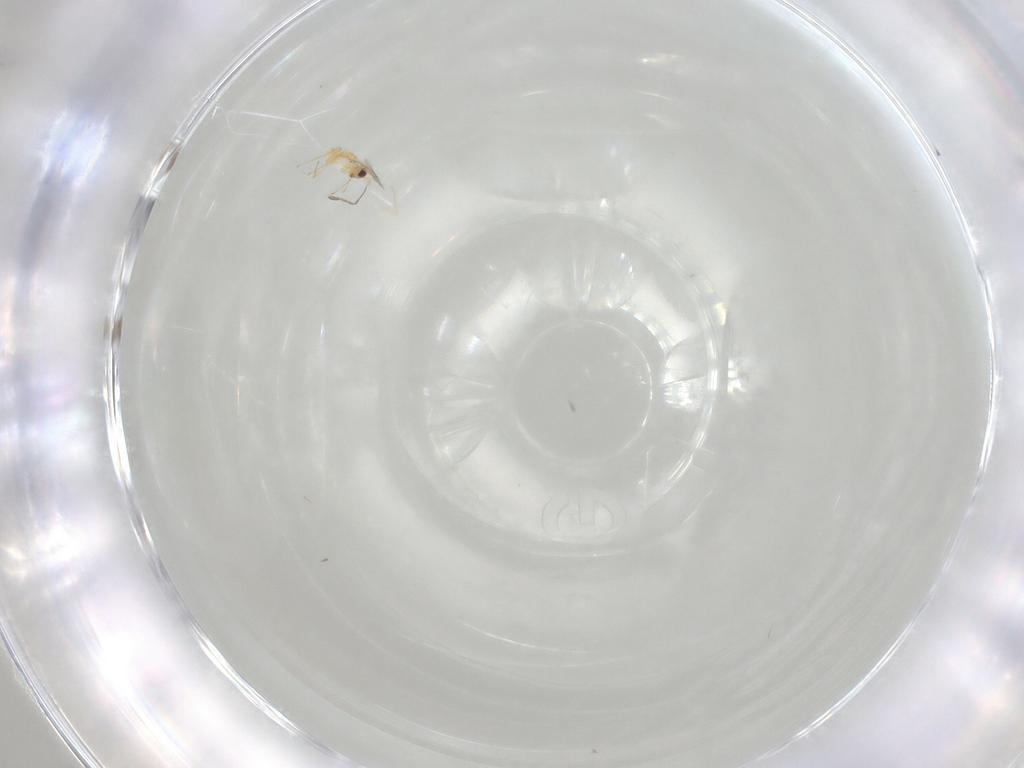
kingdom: Animalia
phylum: Arthropoda
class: Insecta
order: Hymenoptera
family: Mymaridae
